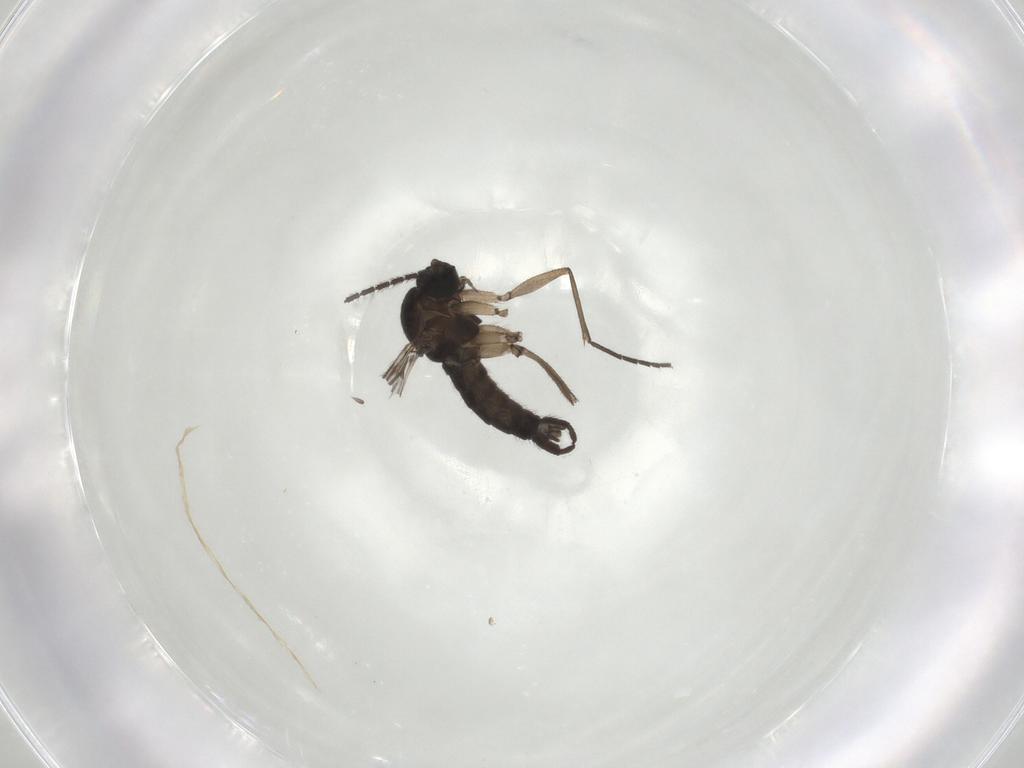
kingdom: Animalia
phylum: Arthropoda
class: Insecta
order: Diptera
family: Sciaridae
